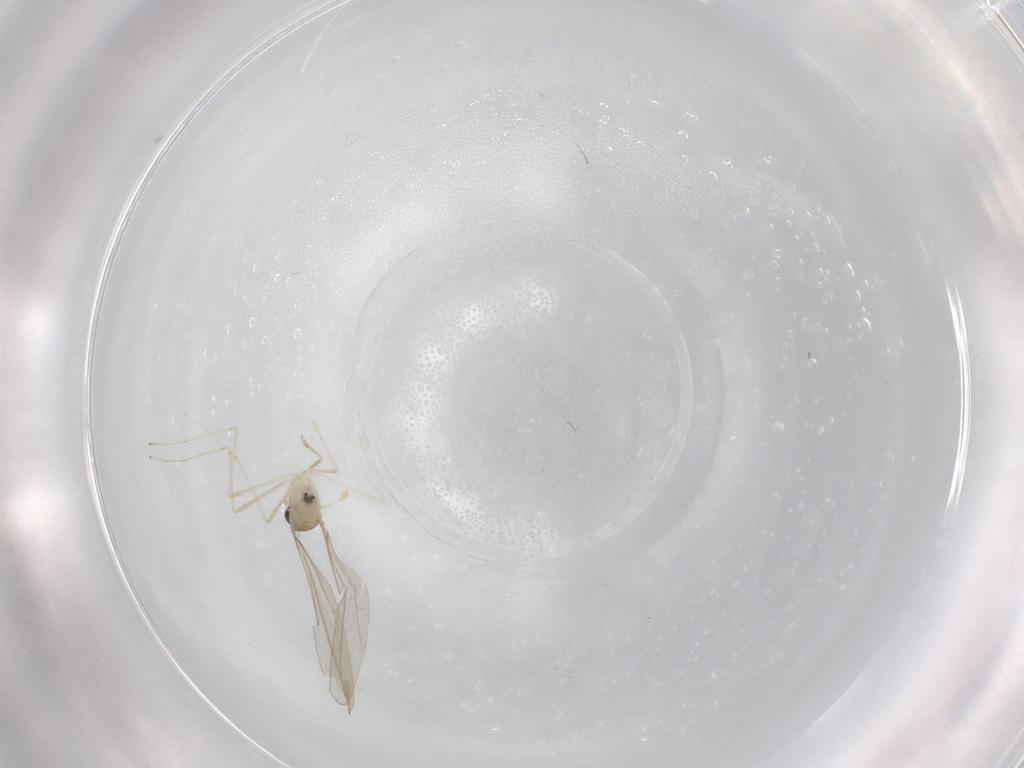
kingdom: Animalia
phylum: Arthropoda
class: Insecta
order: Diptera
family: Cecidomyiidae
